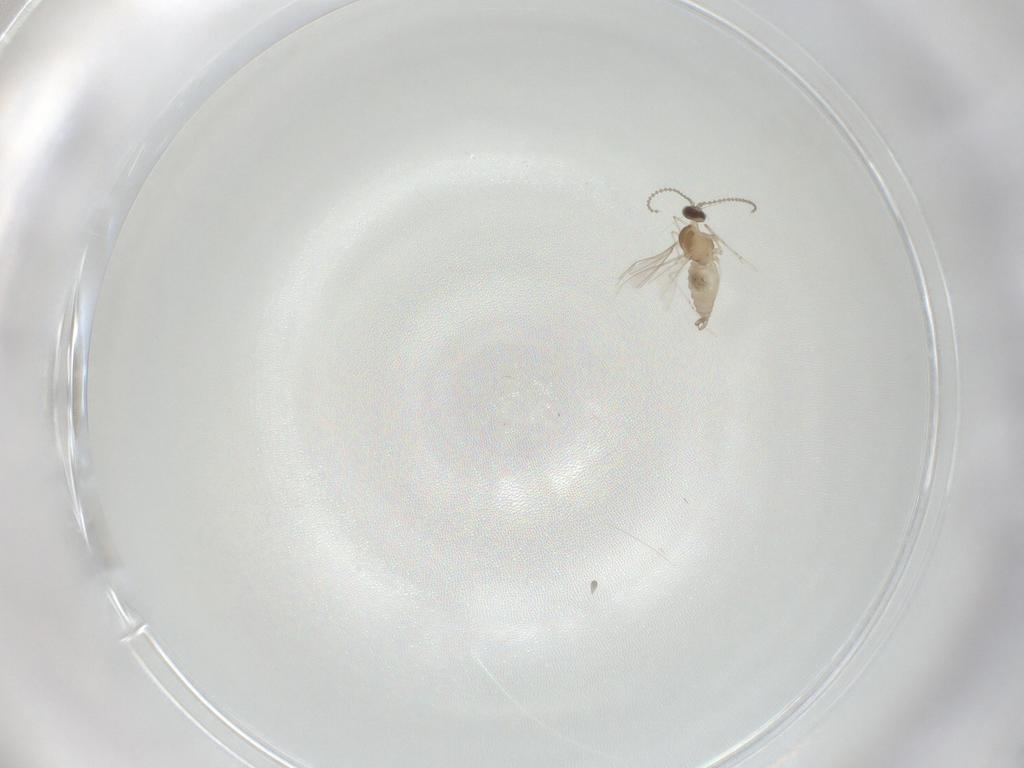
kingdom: Animalia
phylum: Arthropoda
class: Insecta
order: Diptera
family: Cecidomyiidae
